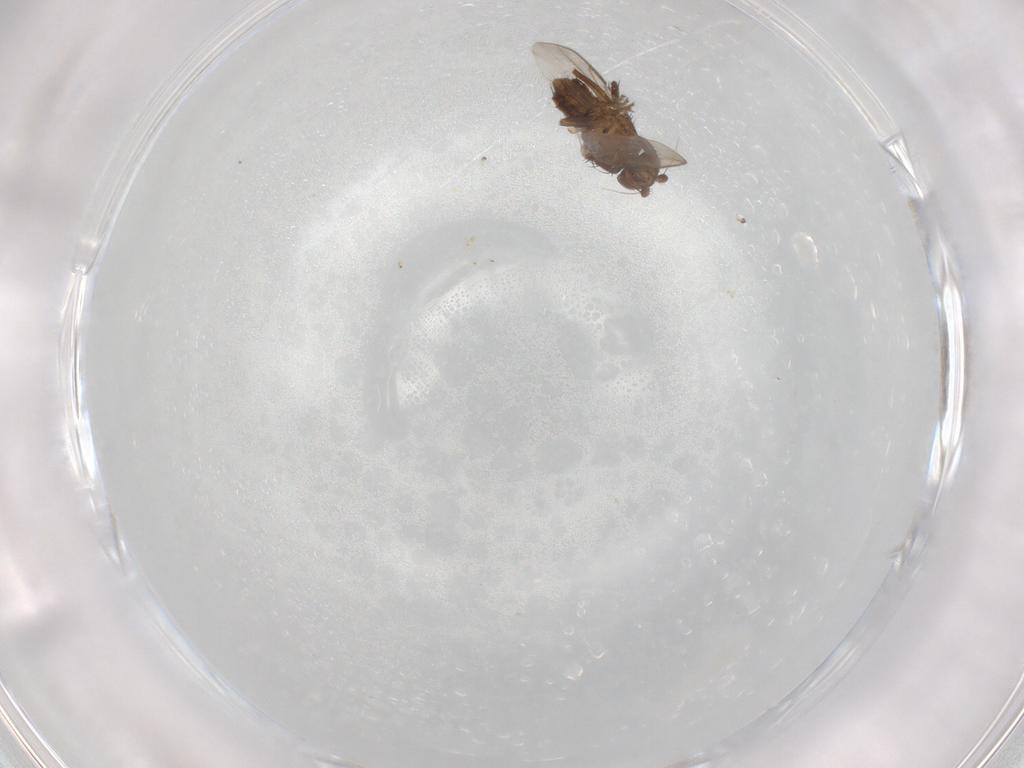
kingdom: Animalia
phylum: Arthropoda
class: Insecta
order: Diptera
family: Sphaeroceridae
